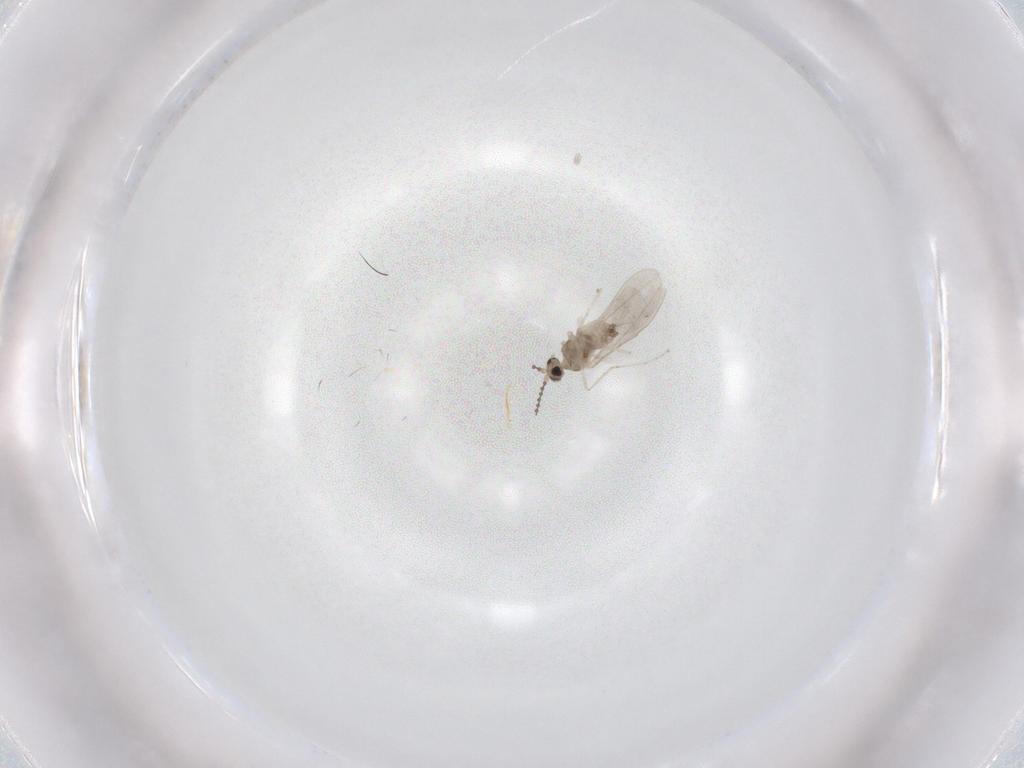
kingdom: Animalia
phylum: Arthropoda
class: Insecta
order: Diptera
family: Cecidomyiidae
